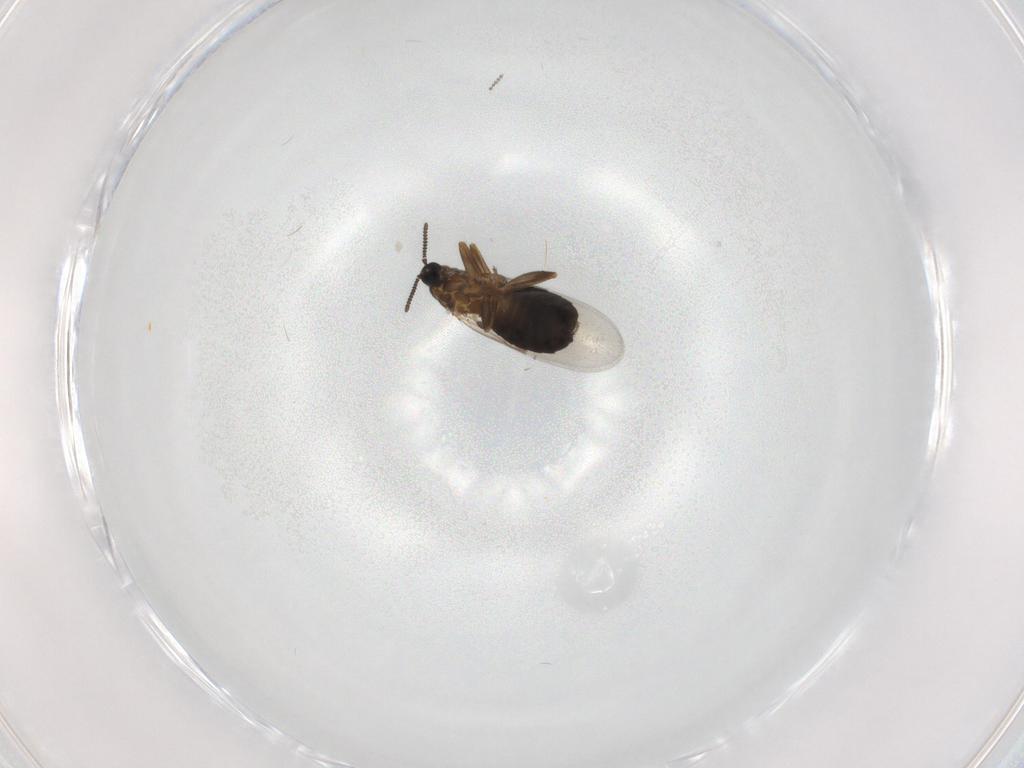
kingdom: Animalia
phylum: Arthropoda
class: Insecta
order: Diptera
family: Scatopsidae
